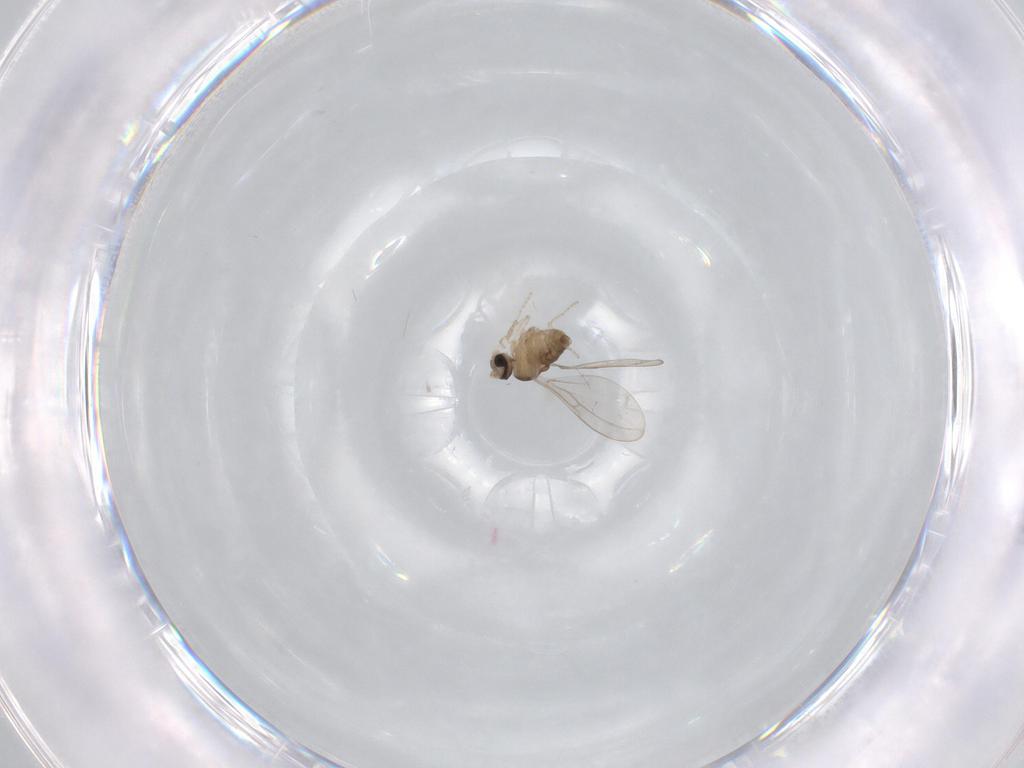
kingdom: Animalia
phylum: Arthropoda
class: Insecta
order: Diptera
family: Cecidomyiidae
